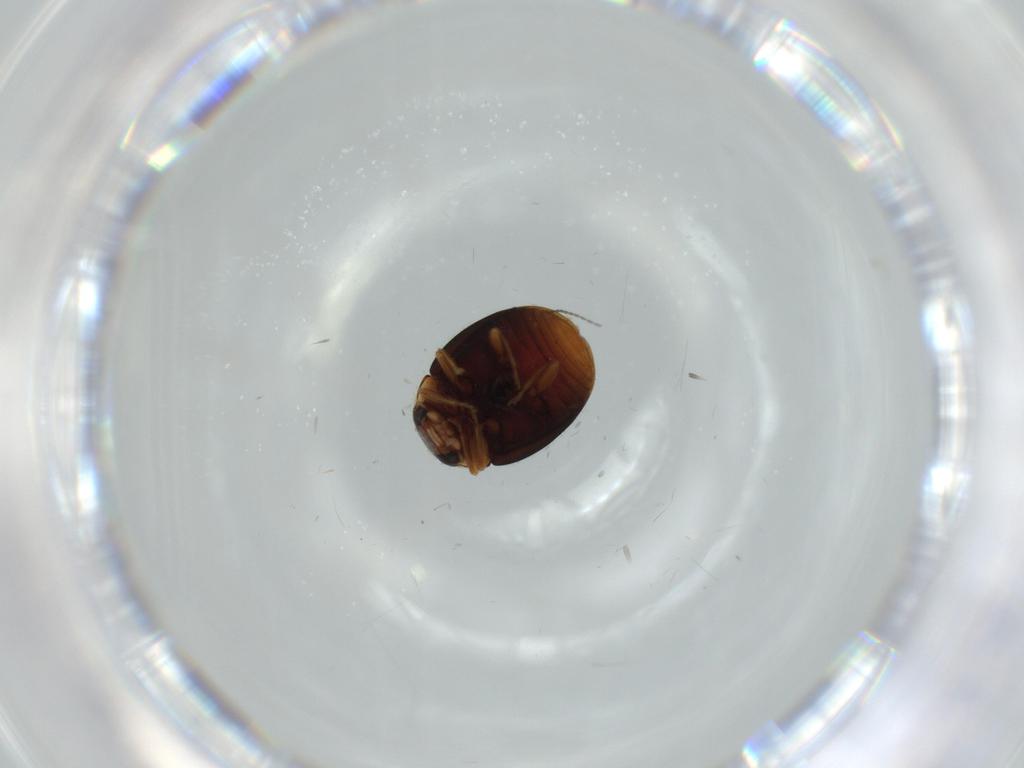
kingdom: Animalia
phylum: Arthropoda
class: Insecta
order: Coleoptera
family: Coccinellidae
